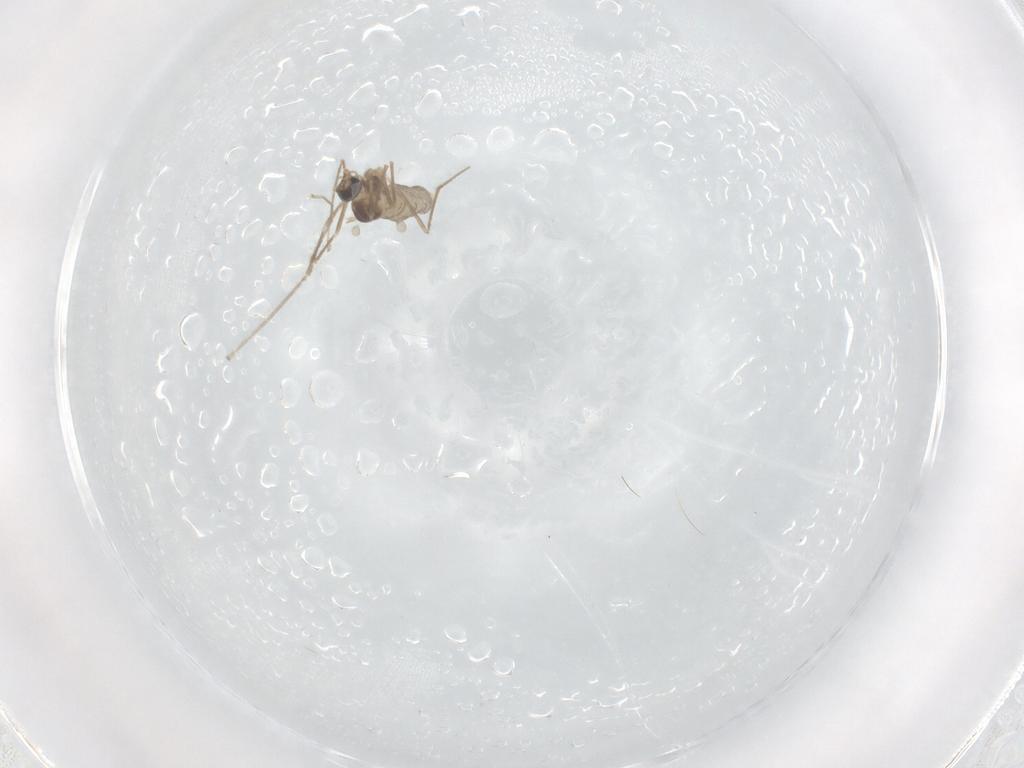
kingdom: Animalia
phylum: Arthropoda
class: Insecta
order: Diptera
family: Cecidomyiidae
